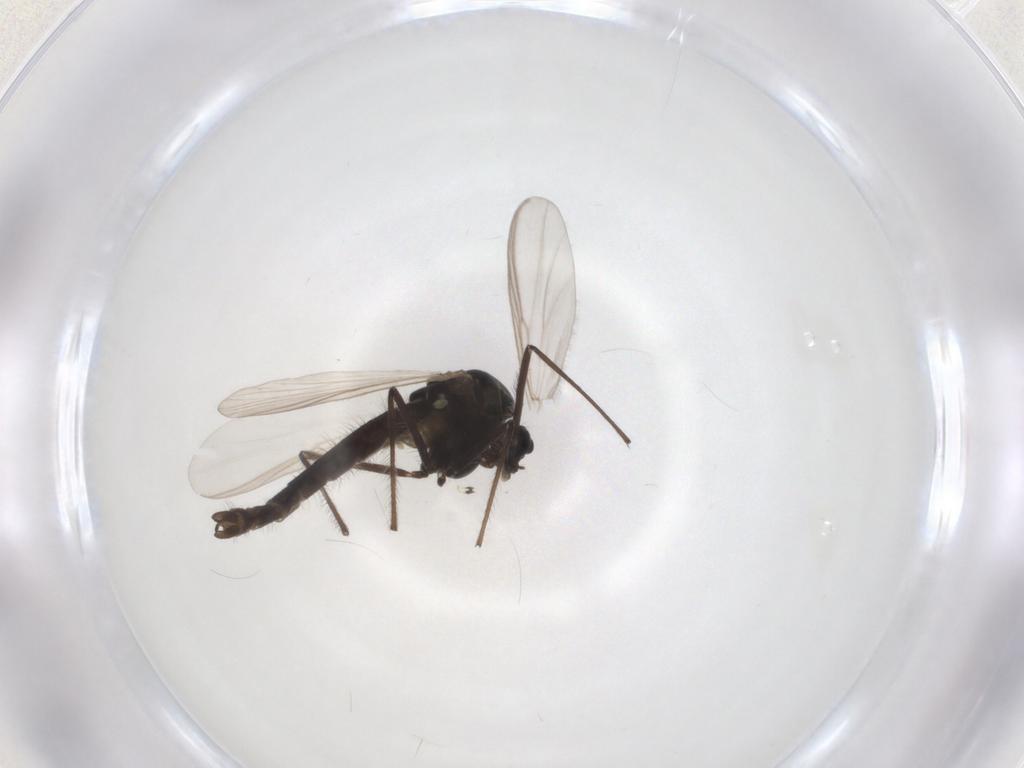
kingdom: Animalia
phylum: Arthropoda
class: Insecta
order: Diptera
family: Chironomidae
